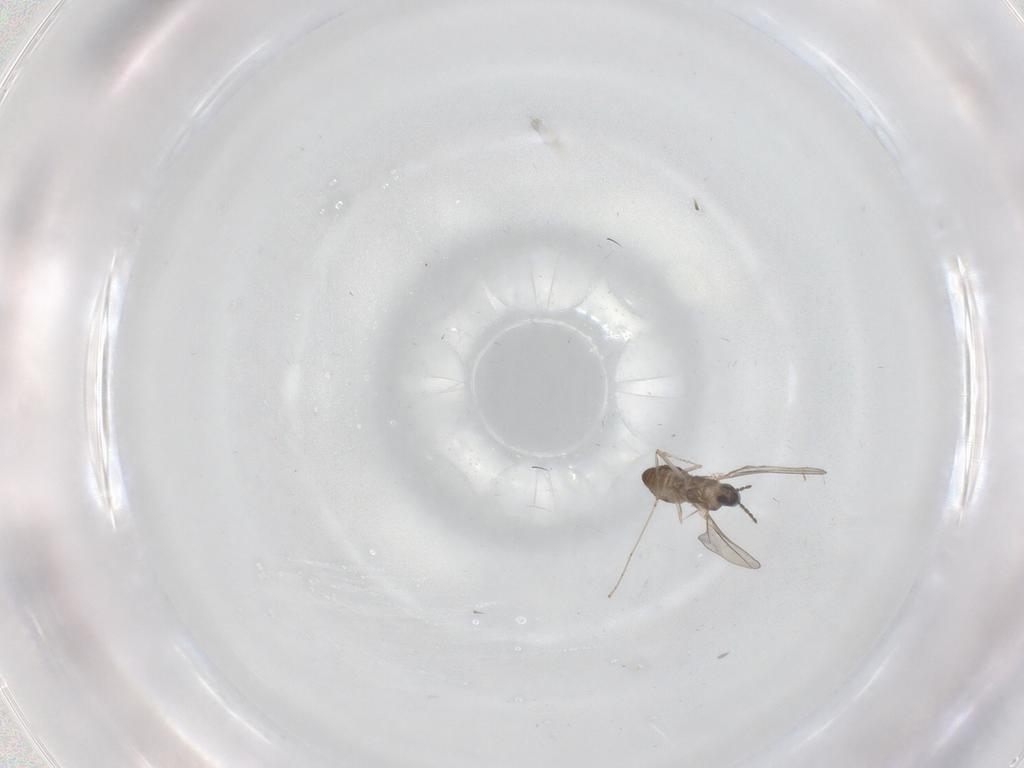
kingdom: Animalia
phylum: Arthropoda
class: Insecta
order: Diptera
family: Cecidomyiidae
